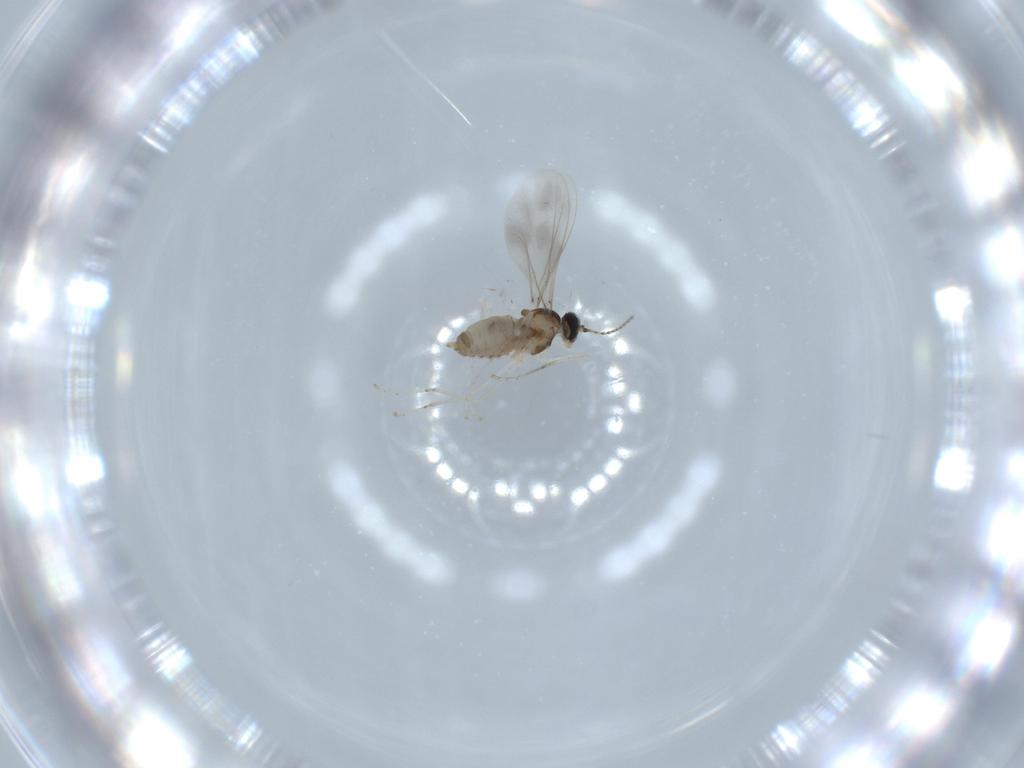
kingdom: Animalia
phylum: Arthropoda
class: Insecta
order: Diptera
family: Cecidomyiidae
